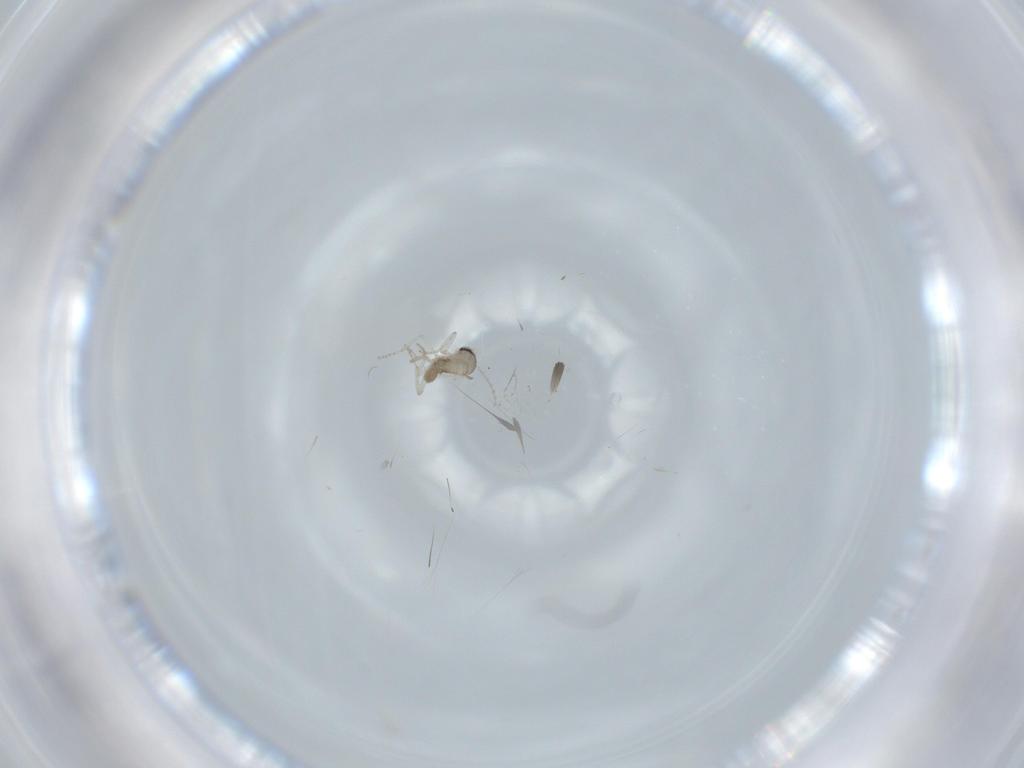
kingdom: Animalia
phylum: Arthropoda
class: Insecta
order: Diptera
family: Cecidomyiidae
